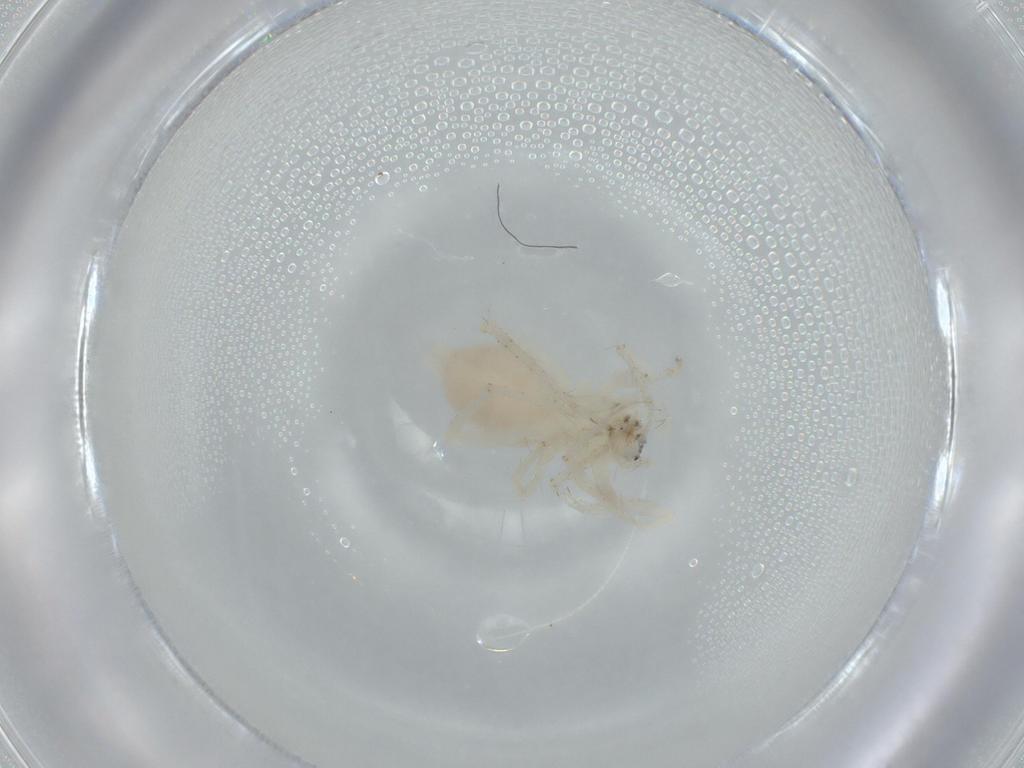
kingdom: Animalia
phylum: Arthropoda
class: Arachnida
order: Araneae
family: Anyphaenidae
